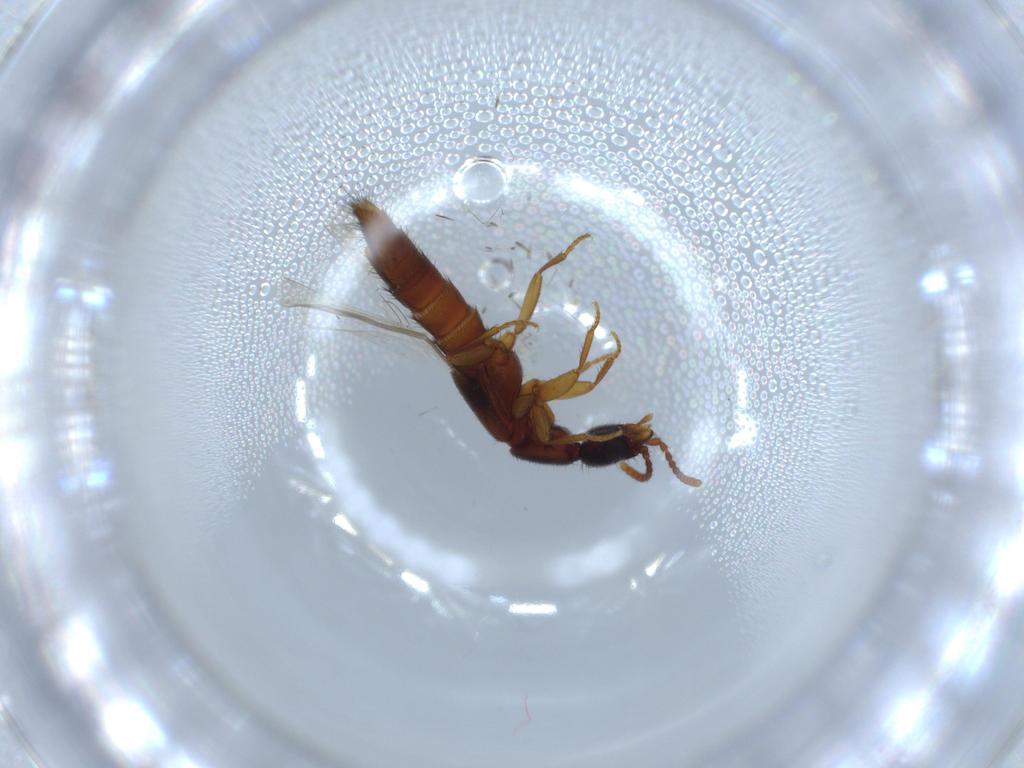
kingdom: Animalia
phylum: Arthropoda
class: Insecta
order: Coleoptera
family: Staphylinidae
